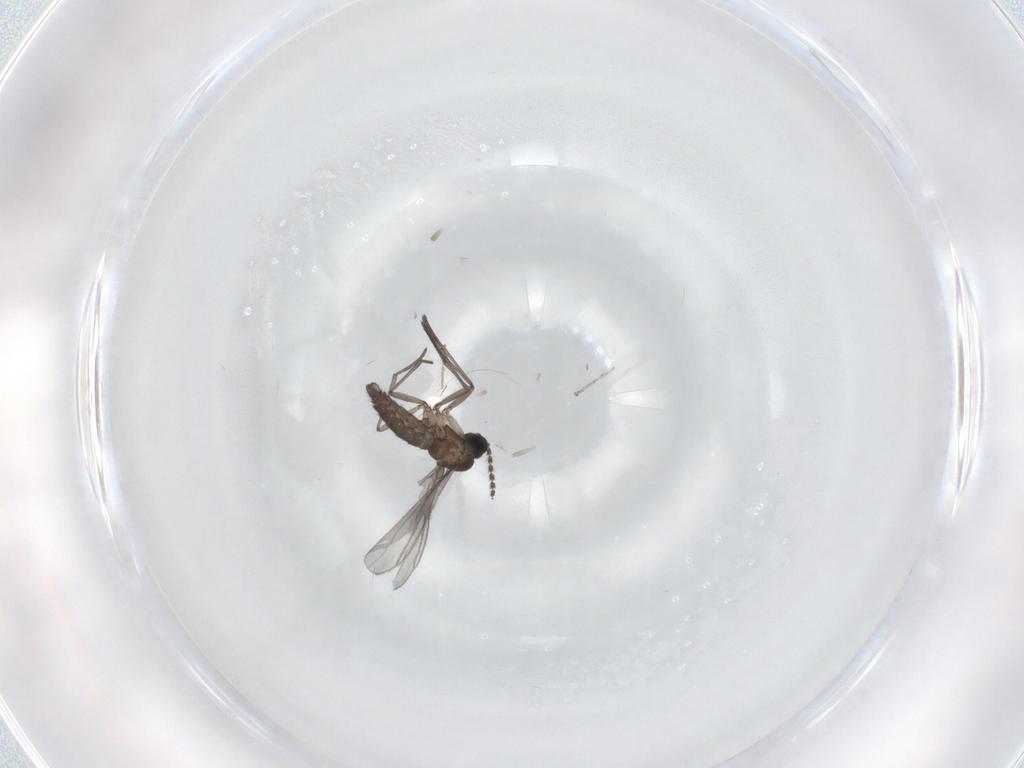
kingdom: Animalia
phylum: Arthropoda
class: Insecta
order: Diptera
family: Sciaridae
